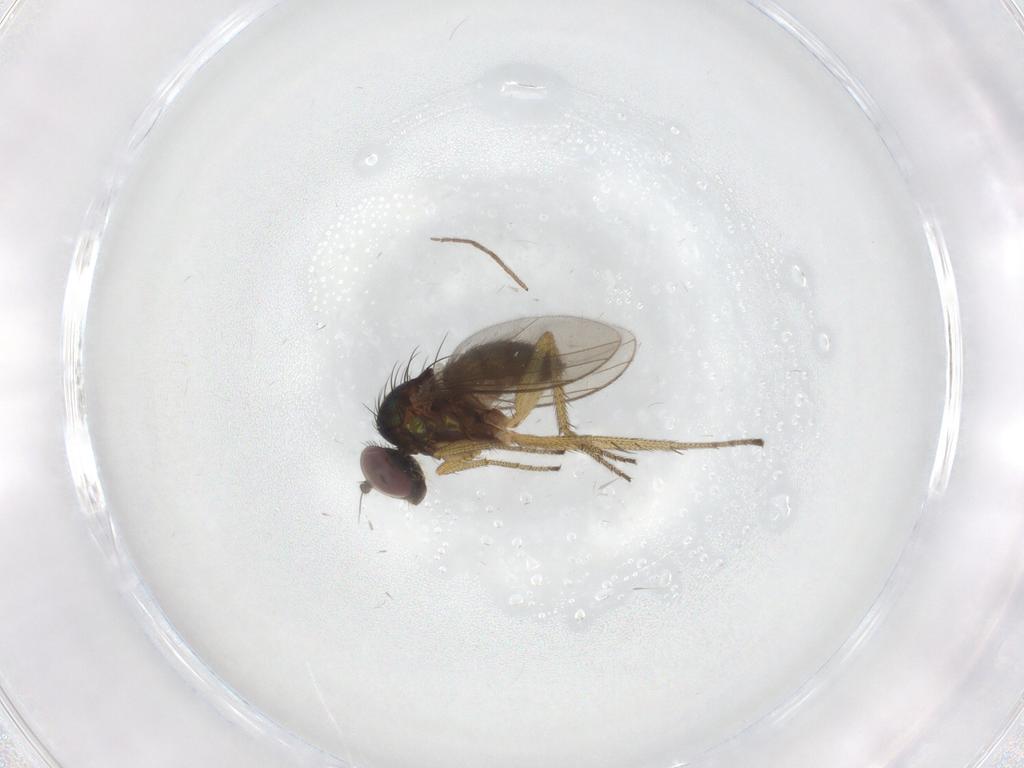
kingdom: Animalia
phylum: Arthropoda
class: Insecta
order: Diptera
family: Chironomidae
